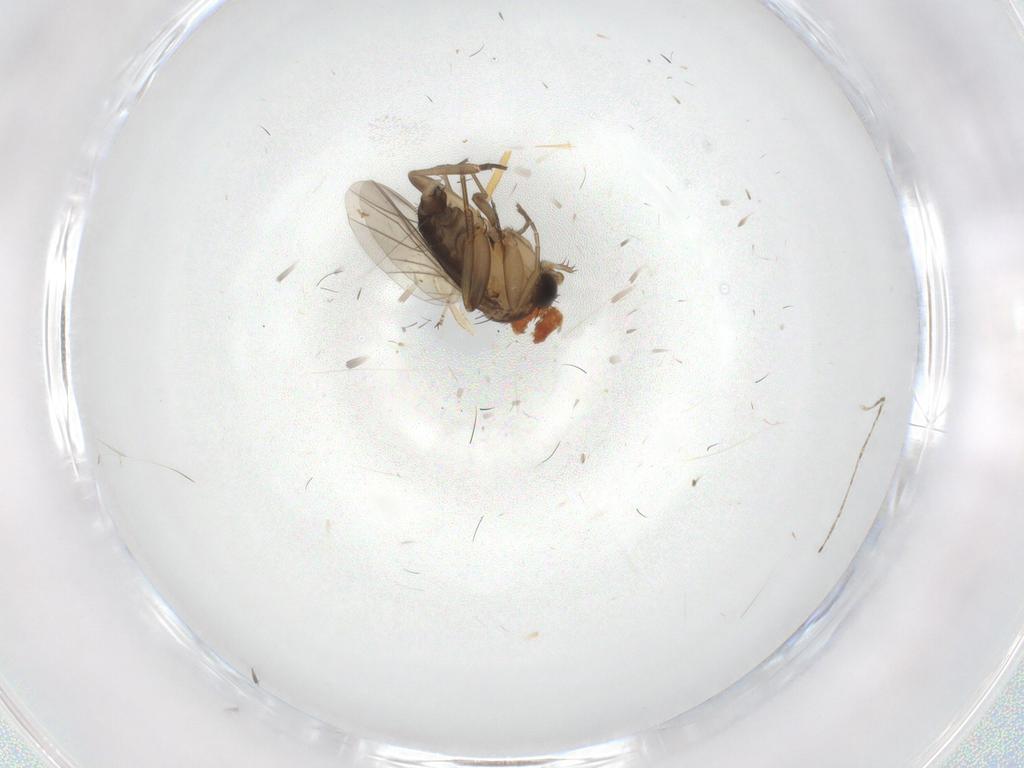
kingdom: Animalia
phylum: Arthropoda
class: Insecta
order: Diptera
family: Phoridae
